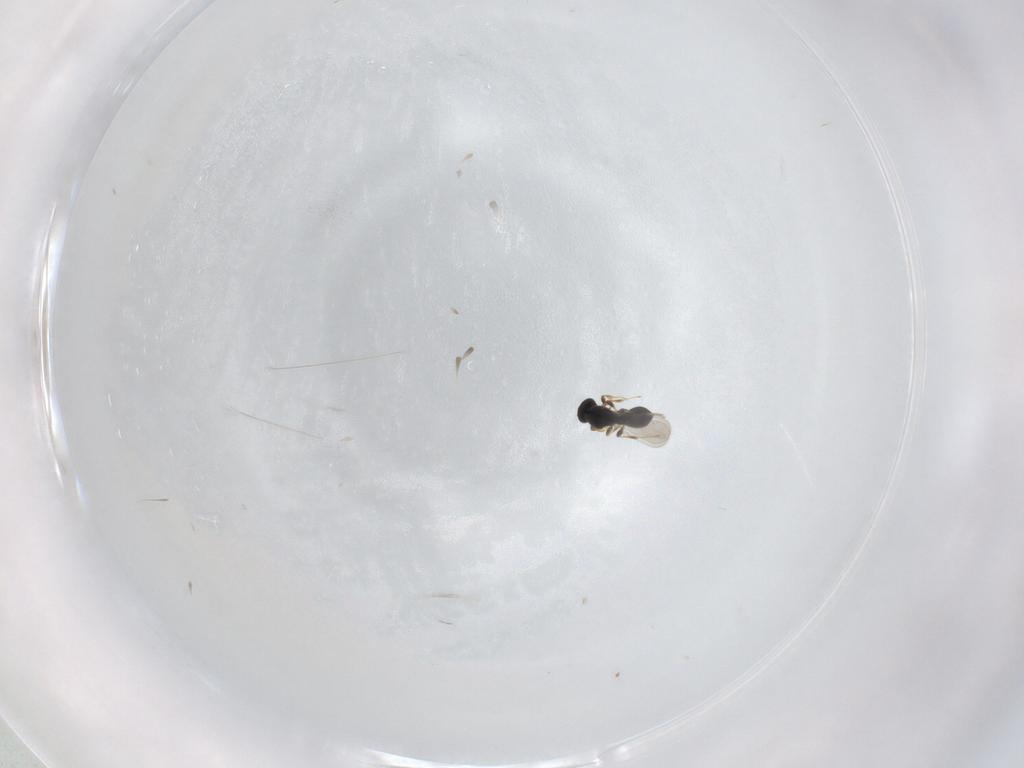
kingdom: Animalia
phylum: Arthropoda
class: Insecta
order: Hymenoptera
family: Platygastridae
